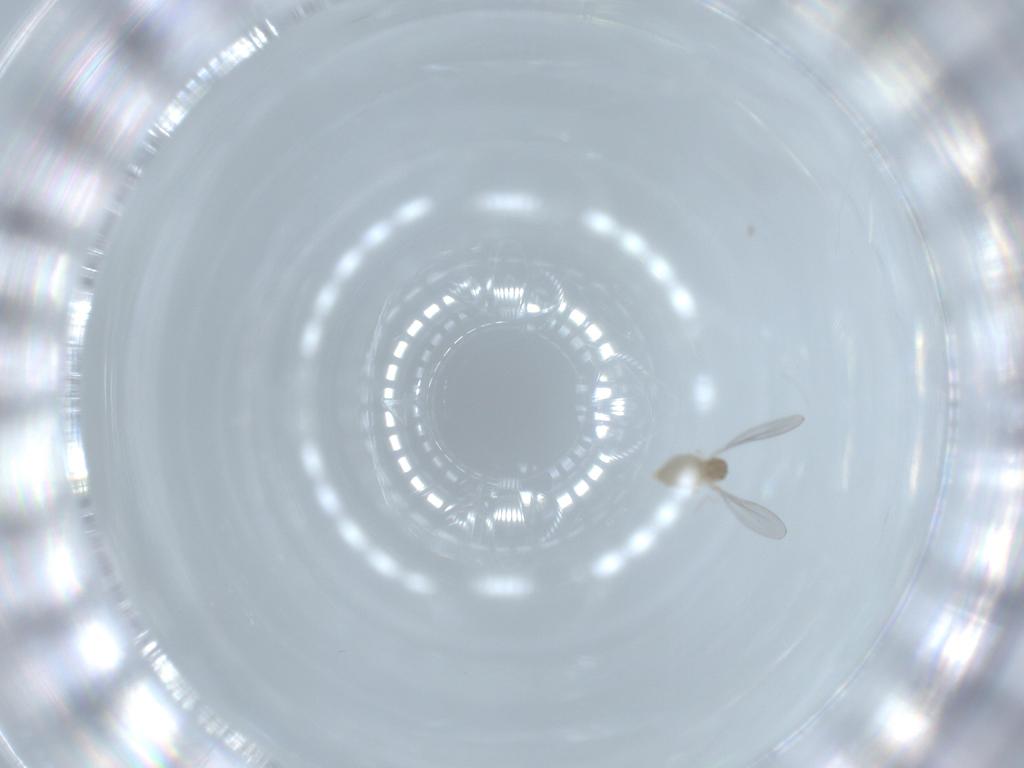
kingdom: Animalia
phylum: Arthropoda
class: Insecta
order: Diptera
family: Cecidomyiidae
